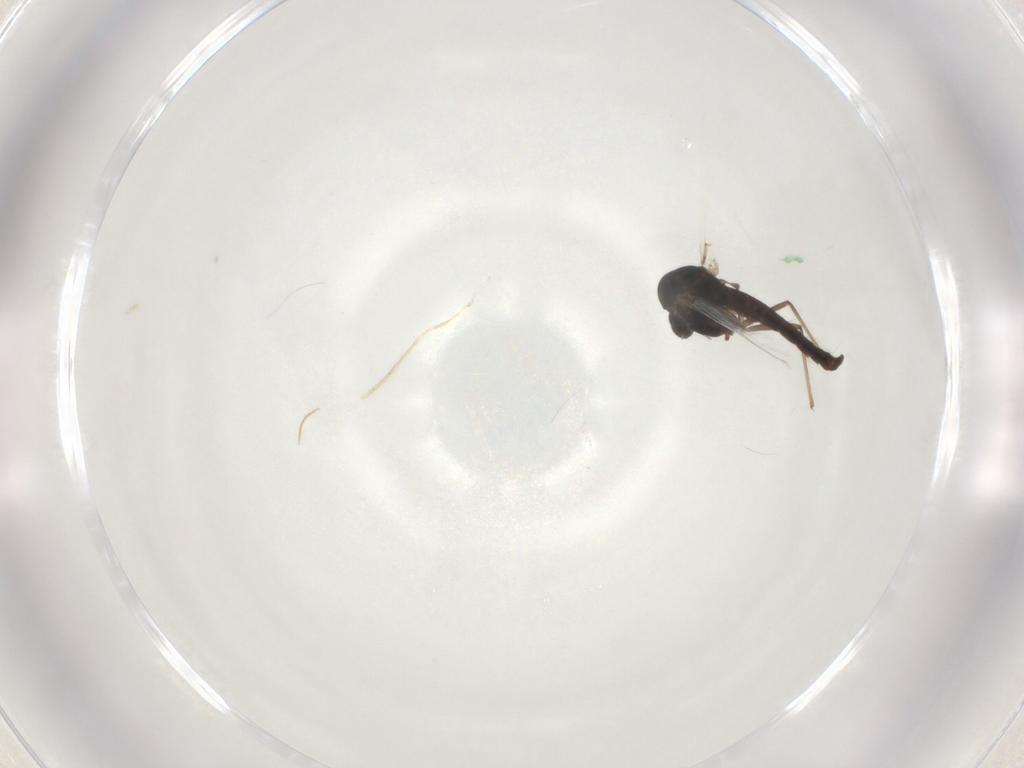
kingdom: Animalia
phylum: Arthropoda
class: Insecta
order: Diptera
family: Chironomidae
